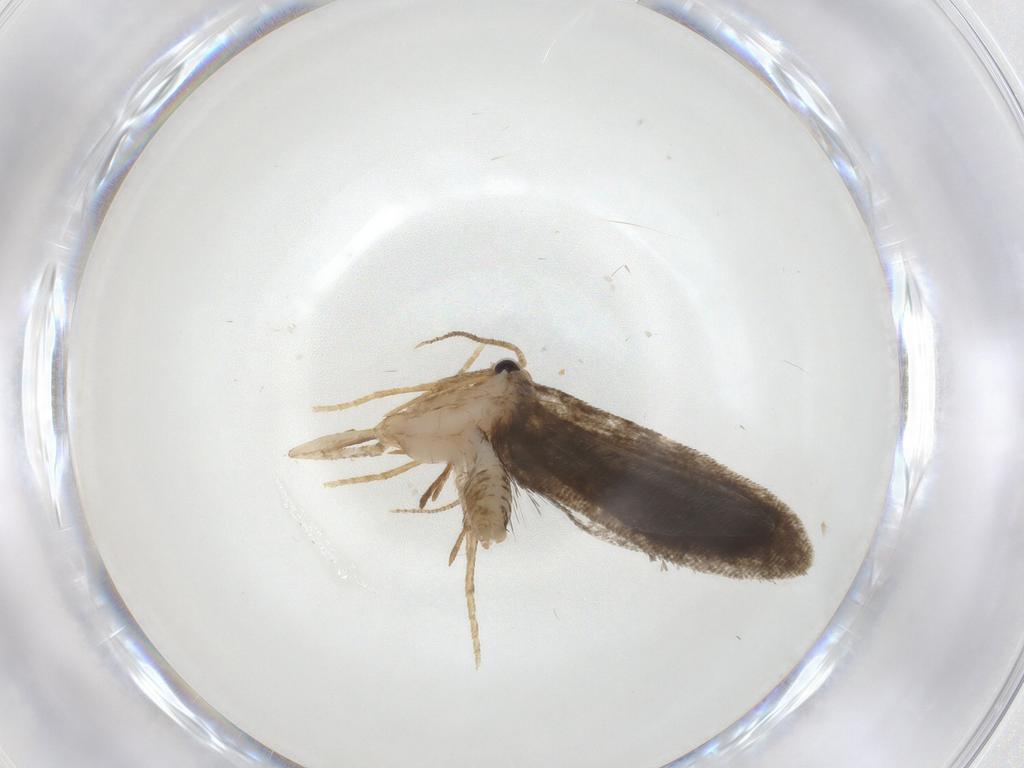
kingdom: Animalia
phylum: Arthropoda
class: Insecta
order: Lepidoptera
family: Psychidae
